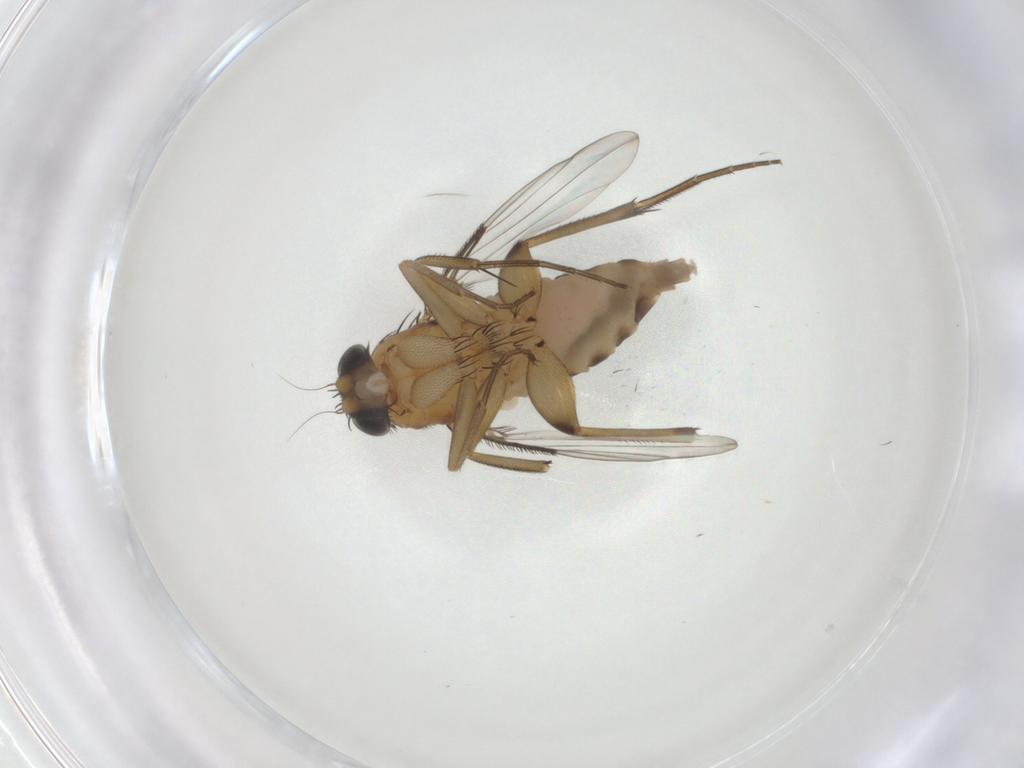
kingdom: Animalia
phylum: Arthropoda
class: Insecta
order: Diptera
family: Phoridae
